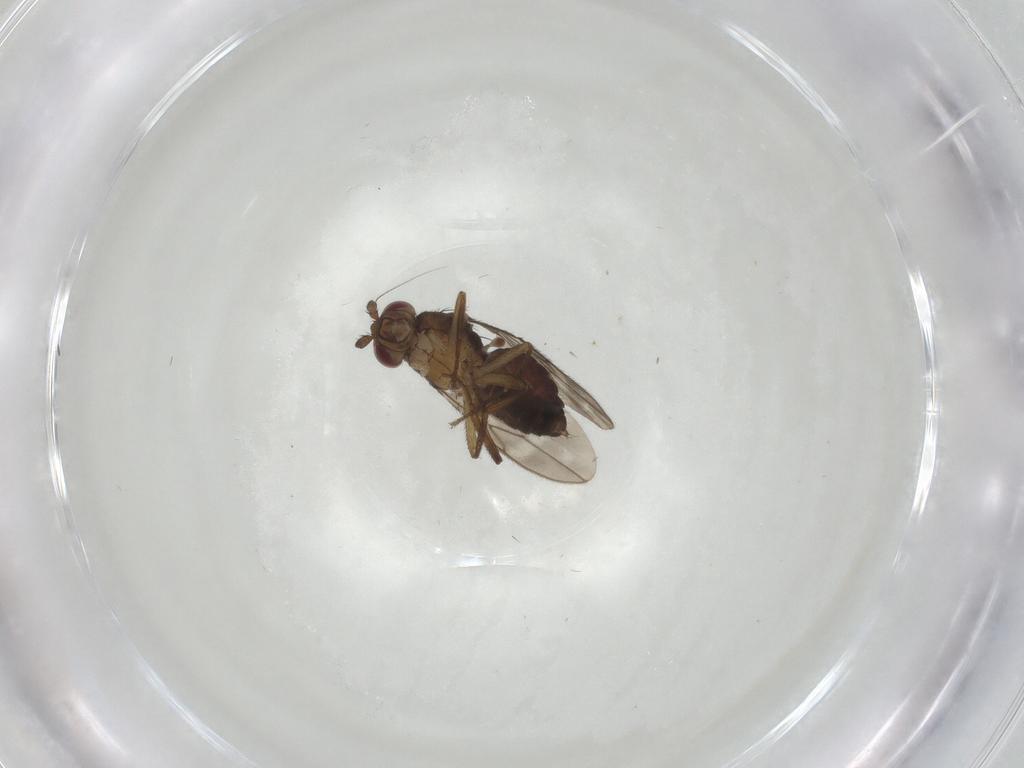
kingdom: Animalia
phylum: Arthropoda
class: Insecta
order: Diptera
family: Sphaeroceridae
